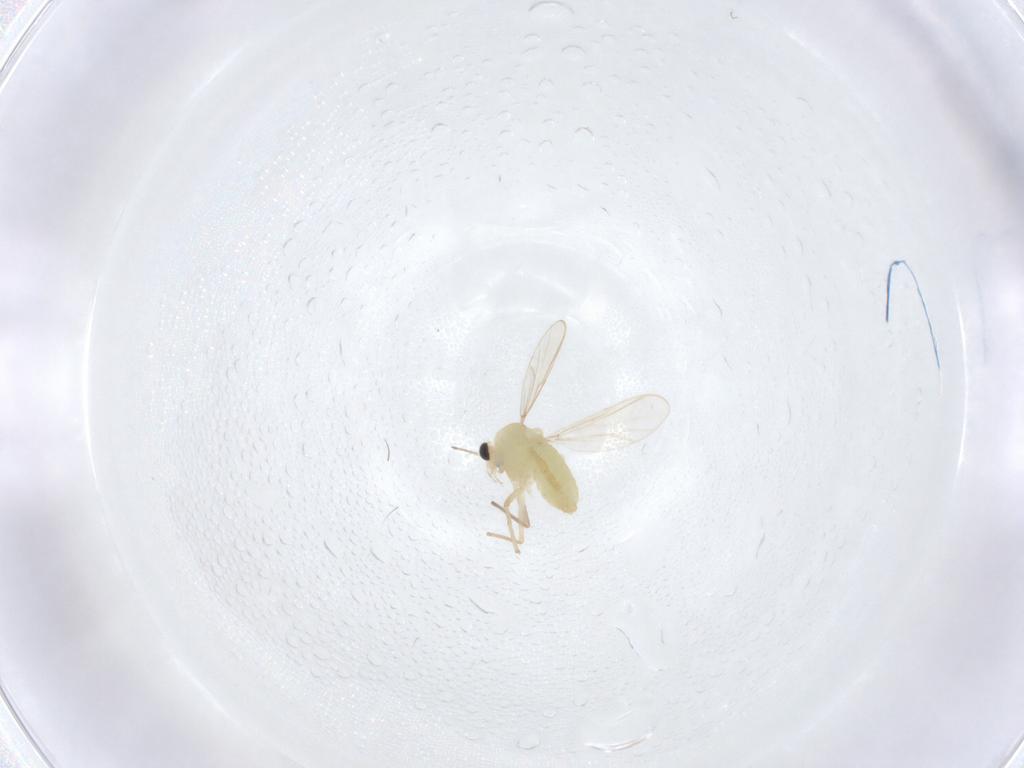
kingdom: Animalia
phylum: Arthropoda
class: Insecta
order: Diptera
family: Chironomidae
